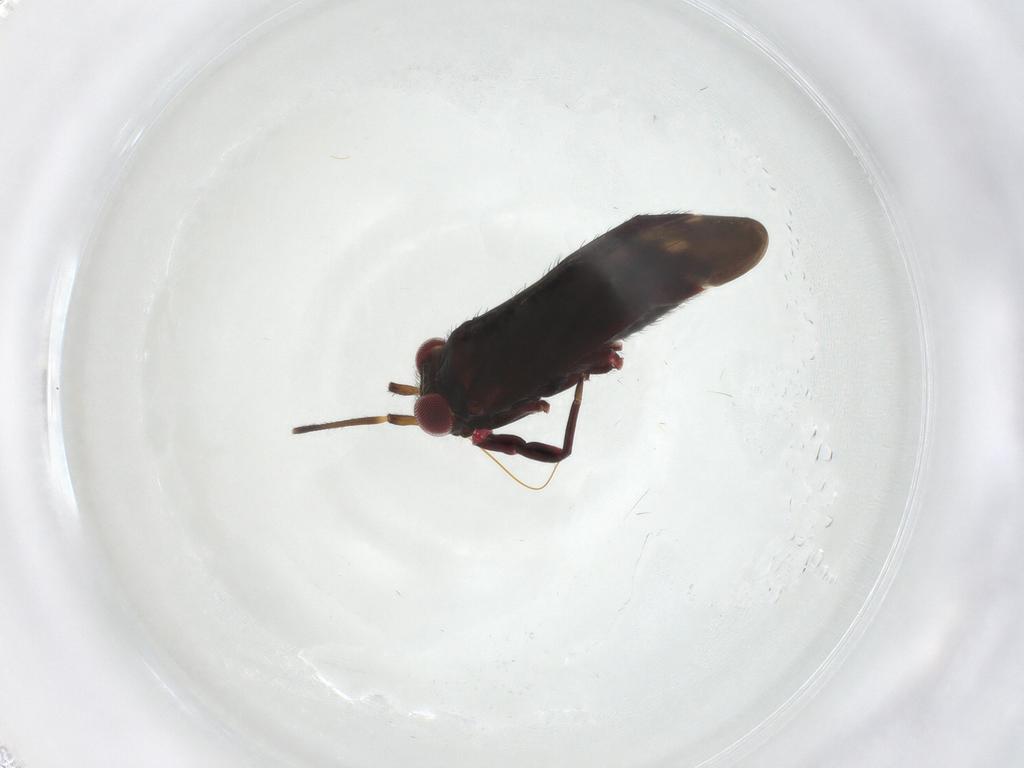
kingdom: Animalia
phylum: Arthropoda
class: Insecta
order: Hemiptera
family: Miridae
